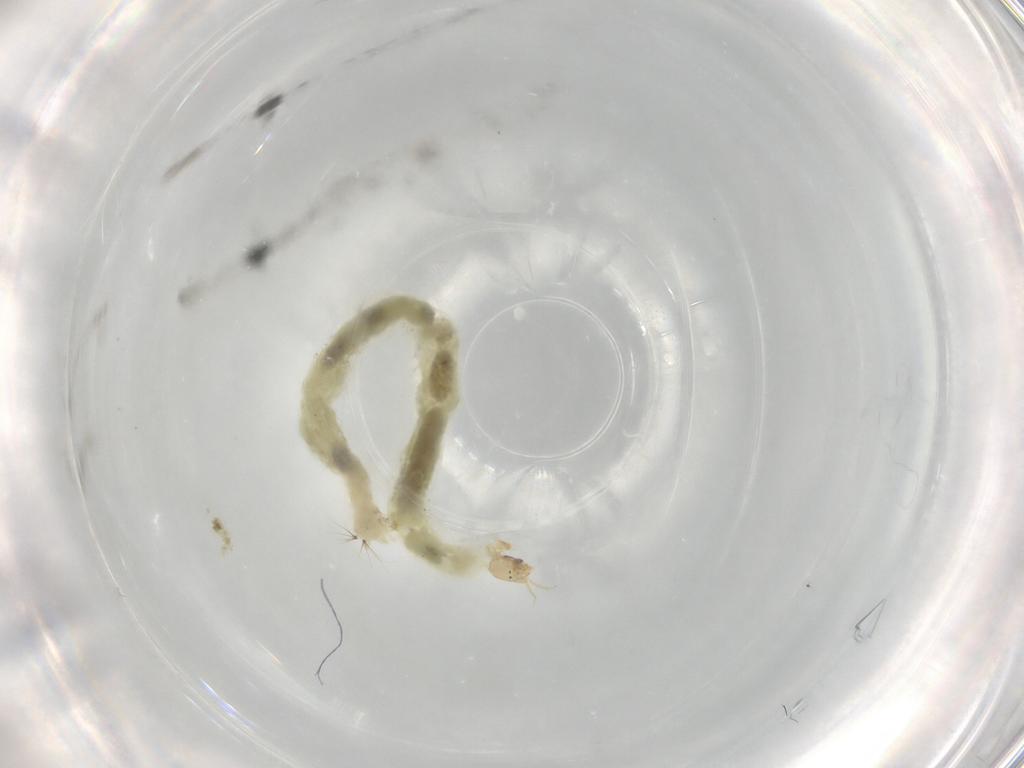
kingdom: Animalia
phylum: Arthropoda
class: Insecta
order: Diptera
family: Chironomidae
